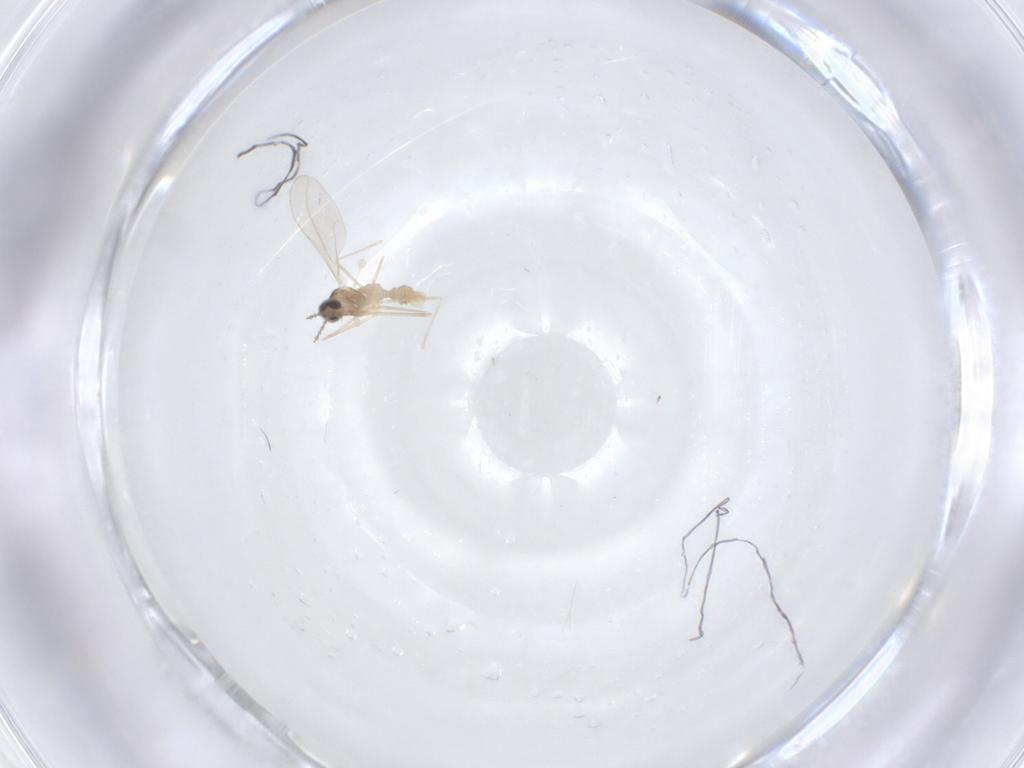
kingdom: Animalia
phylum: Arthropoda
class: Insecta
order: Diptera
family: Cecidomyiidae
